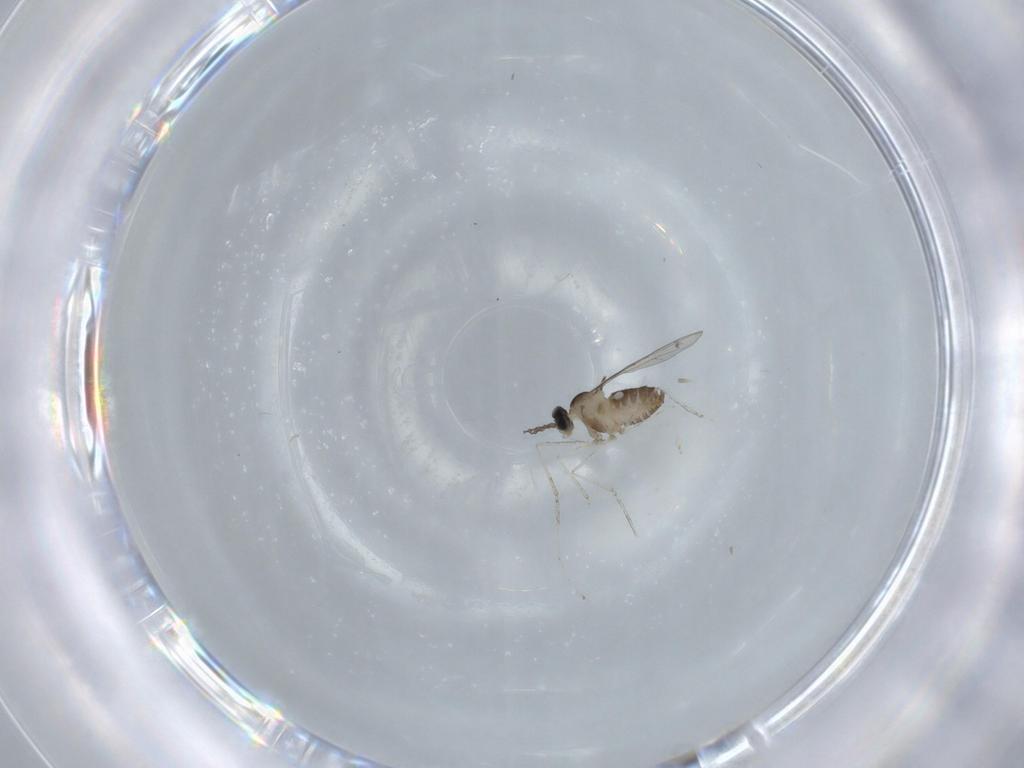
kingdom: Animalia
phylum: Arthropoda
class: Insecta
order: Diptera
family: Cecidomyiidae
